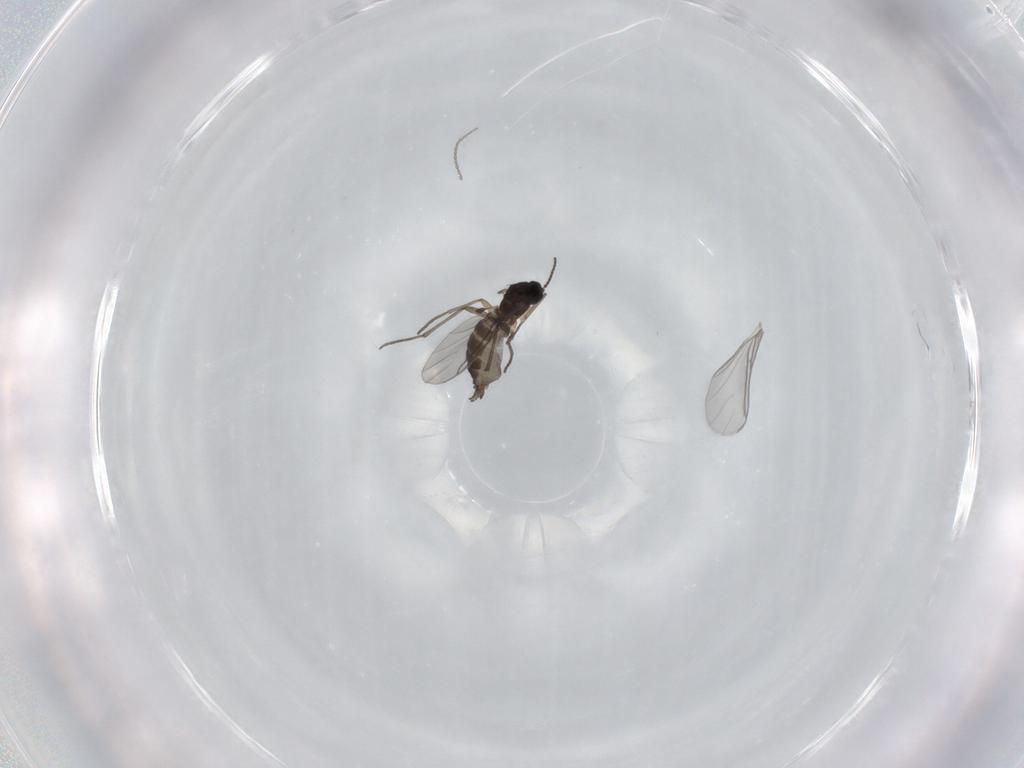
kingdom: Animalia
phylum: Arthropoda
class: Insecta
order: Diptera
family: Sciaridae
